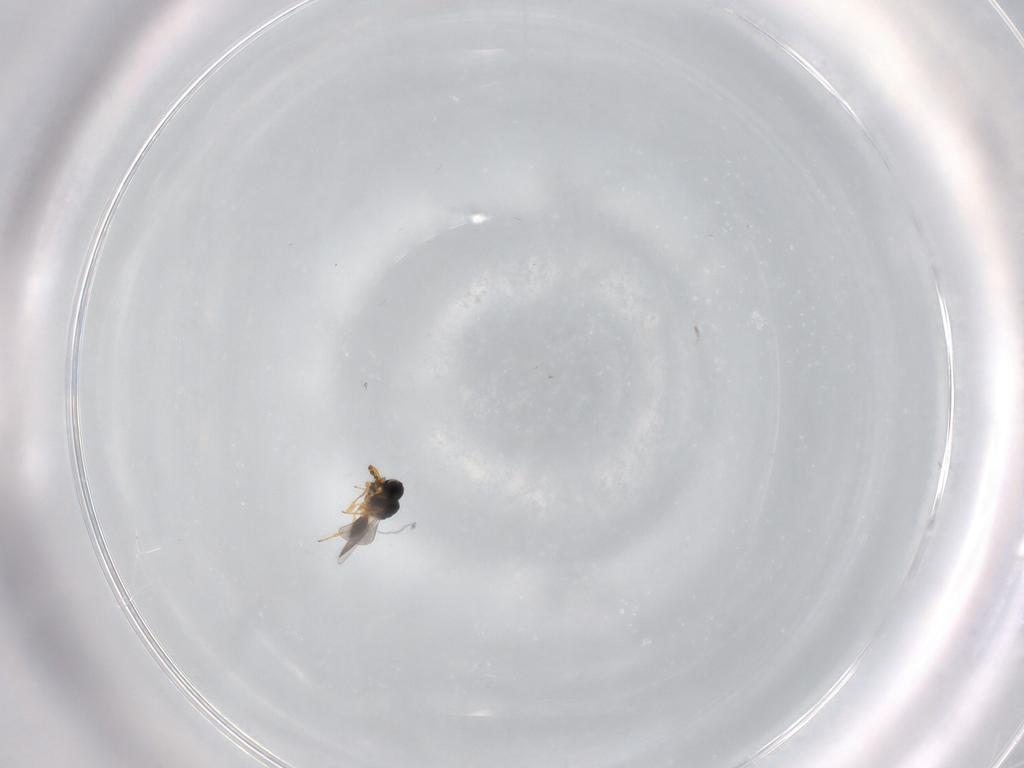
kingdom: Animalia
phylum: Arthropoda
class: Insecta
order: Hymenoptera
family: Platygastridae
